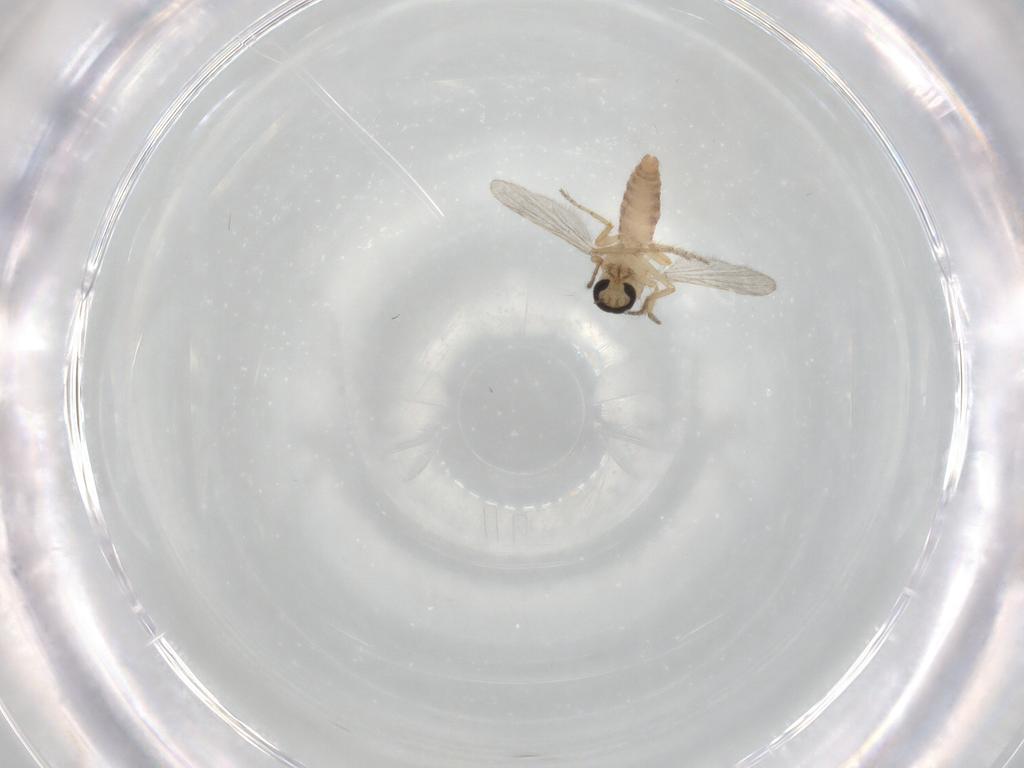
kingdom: Animalia
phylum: Arthropoda
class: Insecta
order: Diptera
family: Ceratopogonidae
